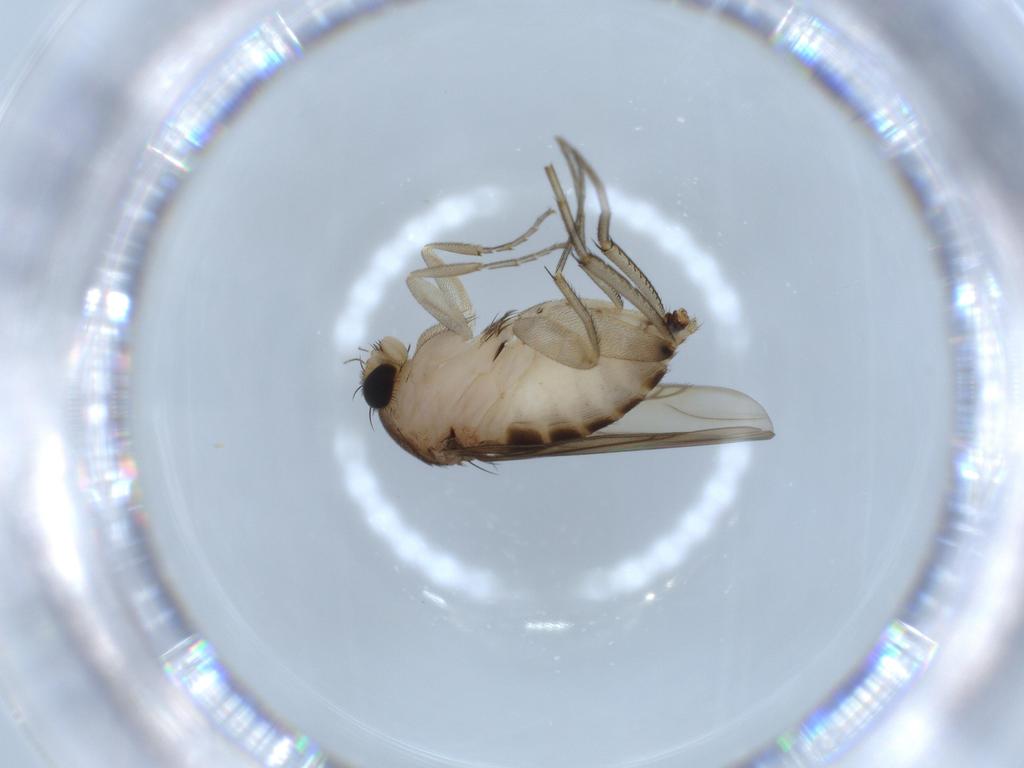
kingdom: Animalia
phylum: Arthropoda
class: Insecta
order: Diptera
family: Phoridae
